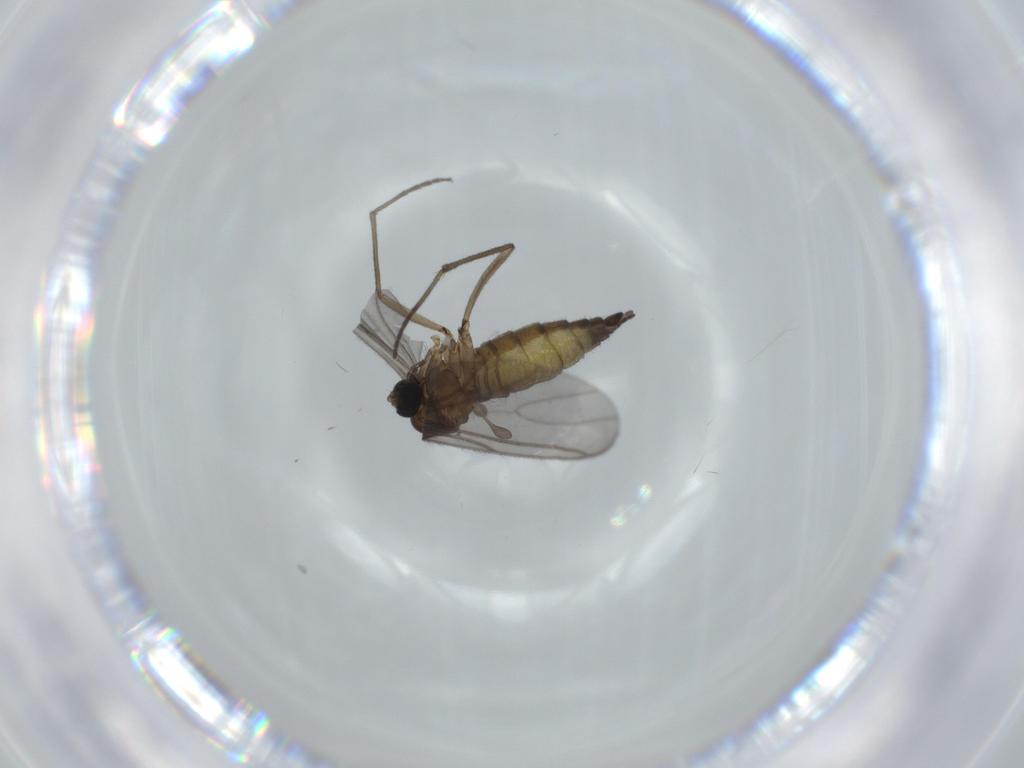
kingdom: Animalia
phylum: Arthropoda
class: Insecta
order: Diptera
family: Sciaridae
